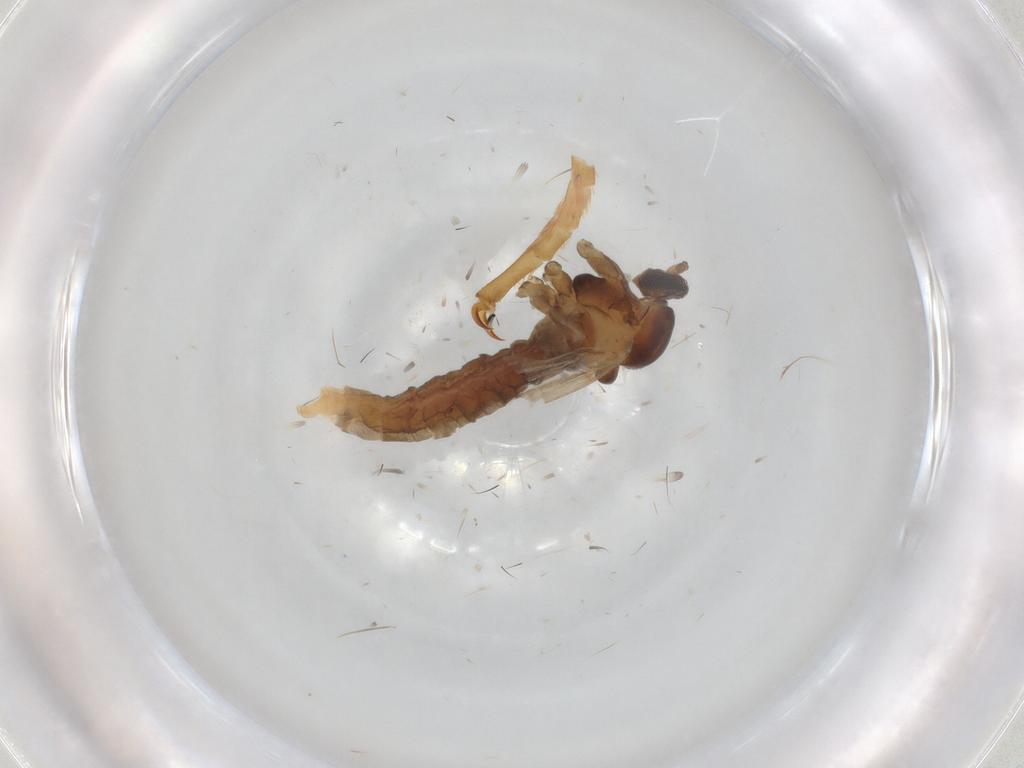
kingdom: Animalia
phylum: Arthropoda
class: Insecta
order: Diptera
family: Cecidomyiidae
